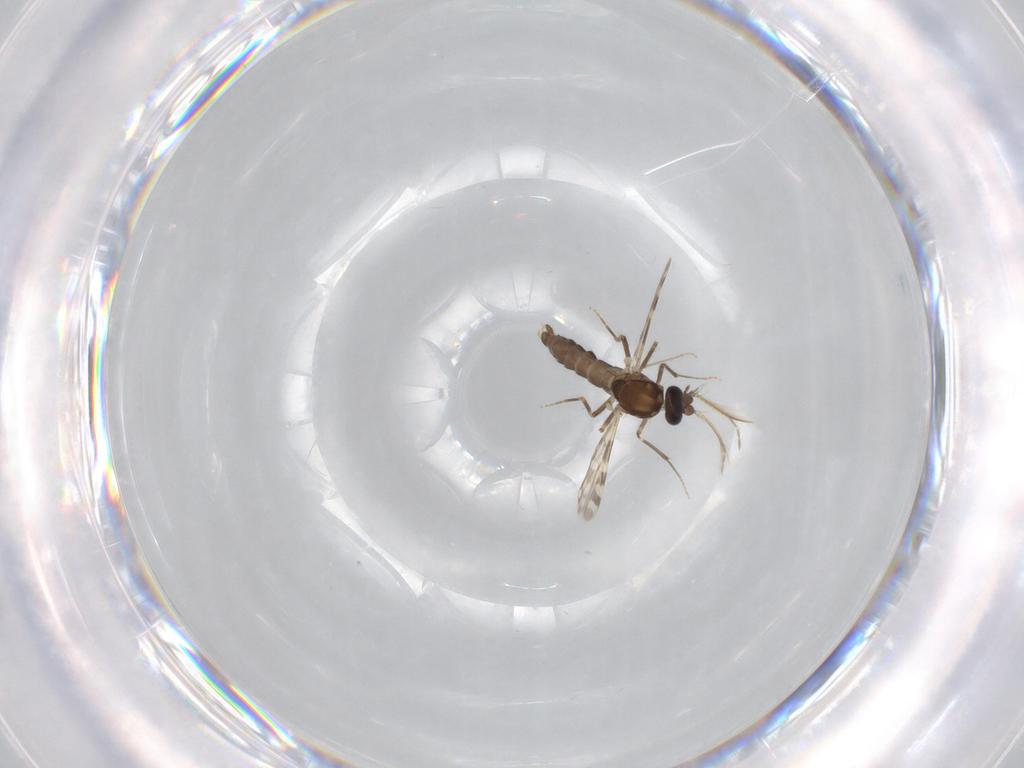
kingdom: Animalia
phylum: Arthropoda
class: Insecta
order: Diptera
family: Ceratopogonidae
